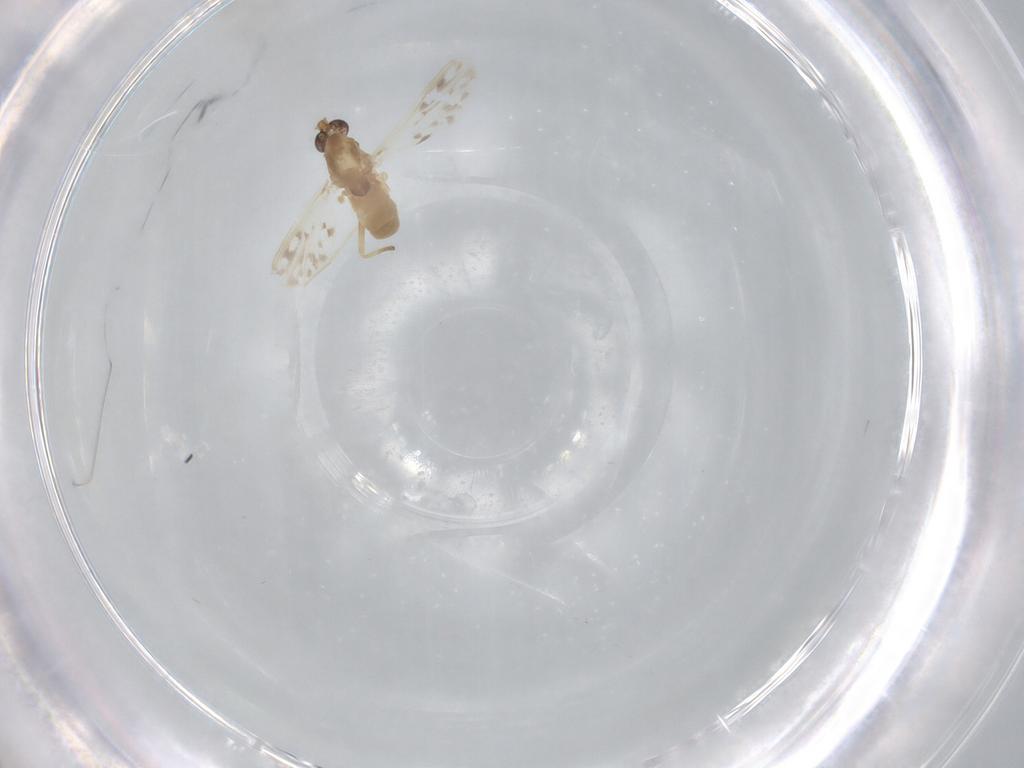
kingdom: Animalia
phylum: Arthropoda
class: Insecta
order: Diptera
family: Chironomidae
